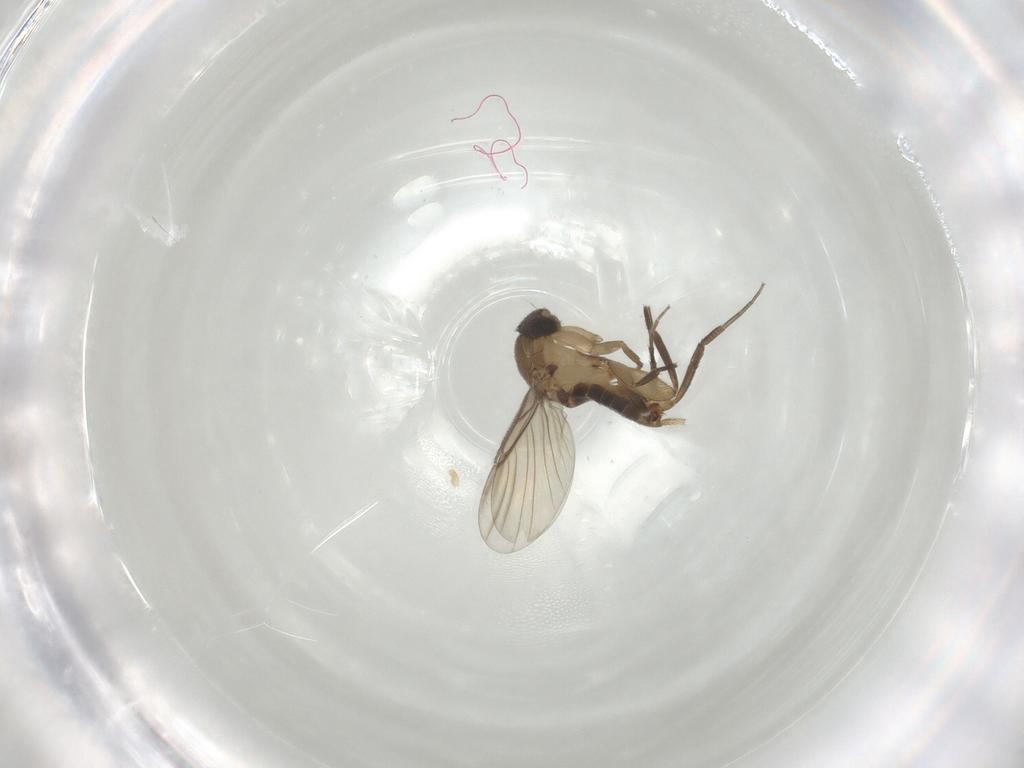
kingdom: Animalia
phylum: Arthropoda
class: Insecta
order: Diptera
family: Phoridae
